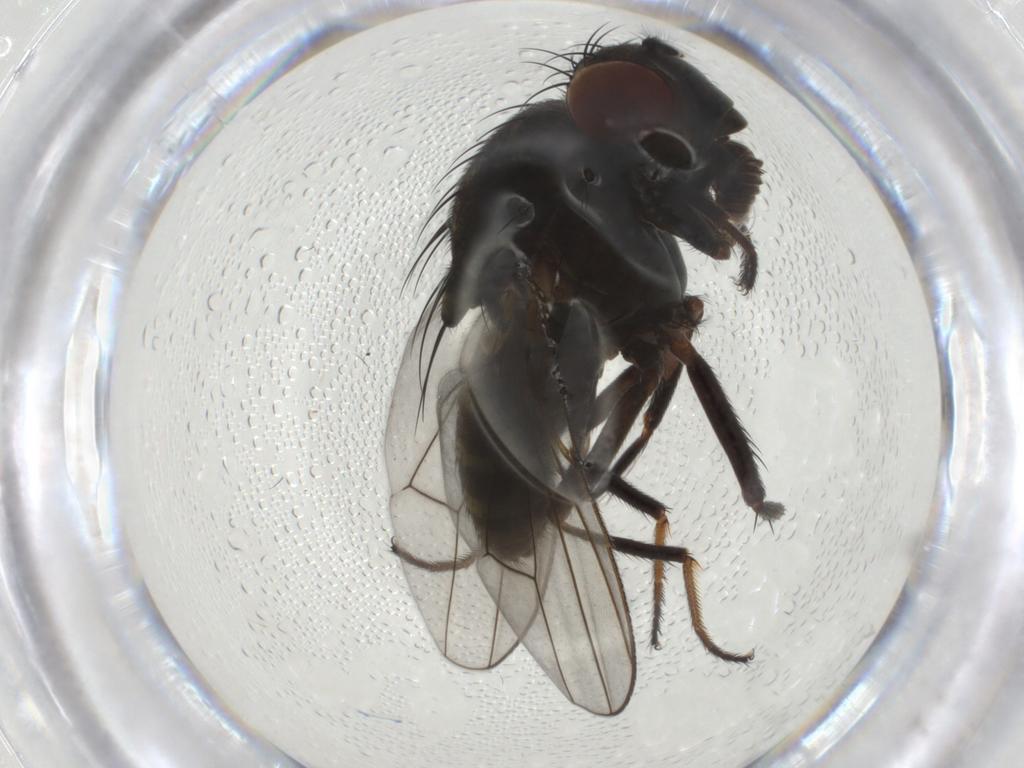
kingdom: Animalia
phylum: Arthropoda
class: Insecta
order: Diptera
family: Ephydridae
